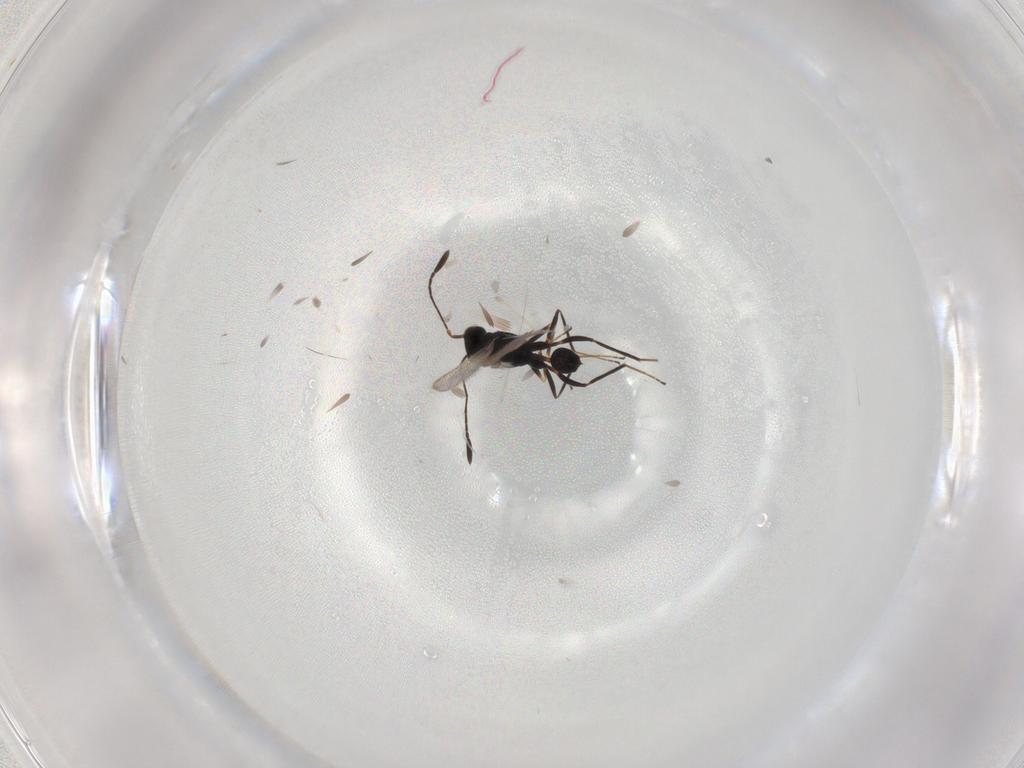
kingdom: Animalia
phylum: Arthropoda
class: Insecta
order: Hymenoptera
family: Mymaridae
